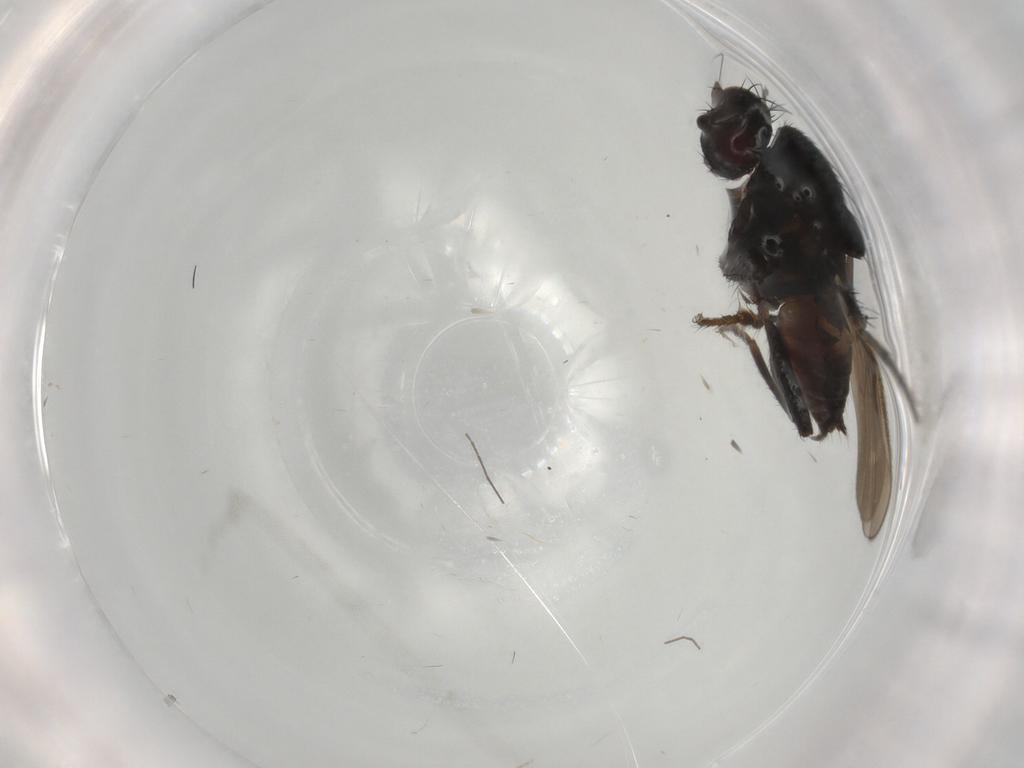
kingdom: Animalia
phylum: Arthropoda
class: Insecta
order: Diptera
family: Sphaeroceridae
